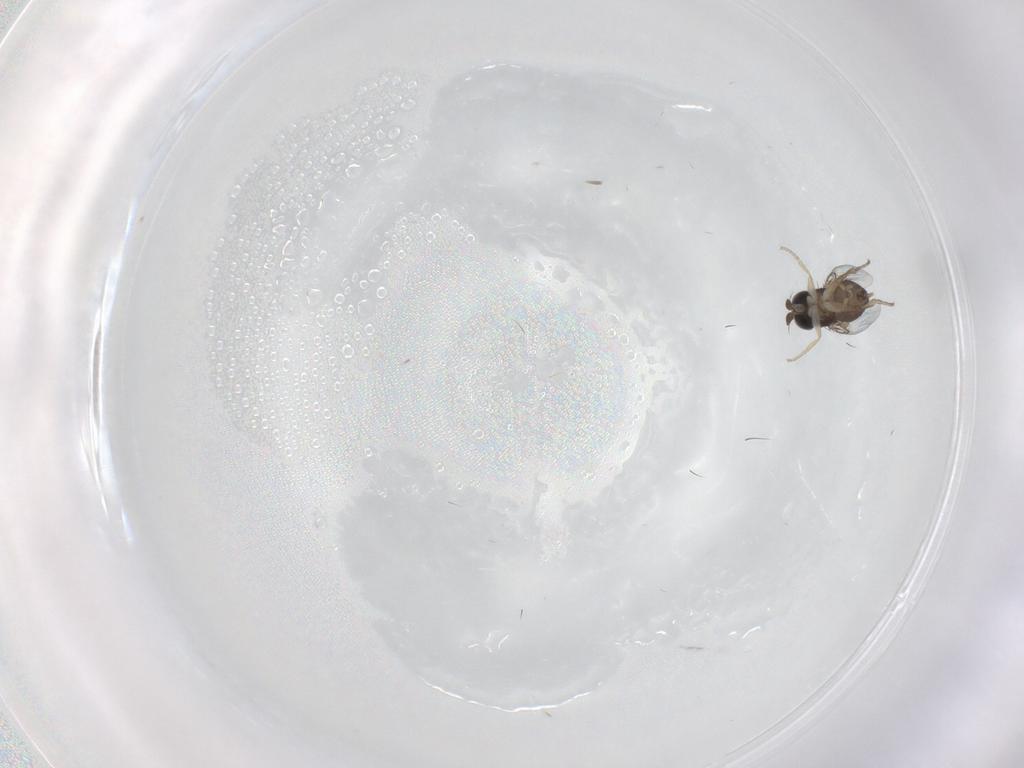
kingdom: Animalia
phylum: Arthropoda
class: Insecta
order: Diptera
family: Phoridae
